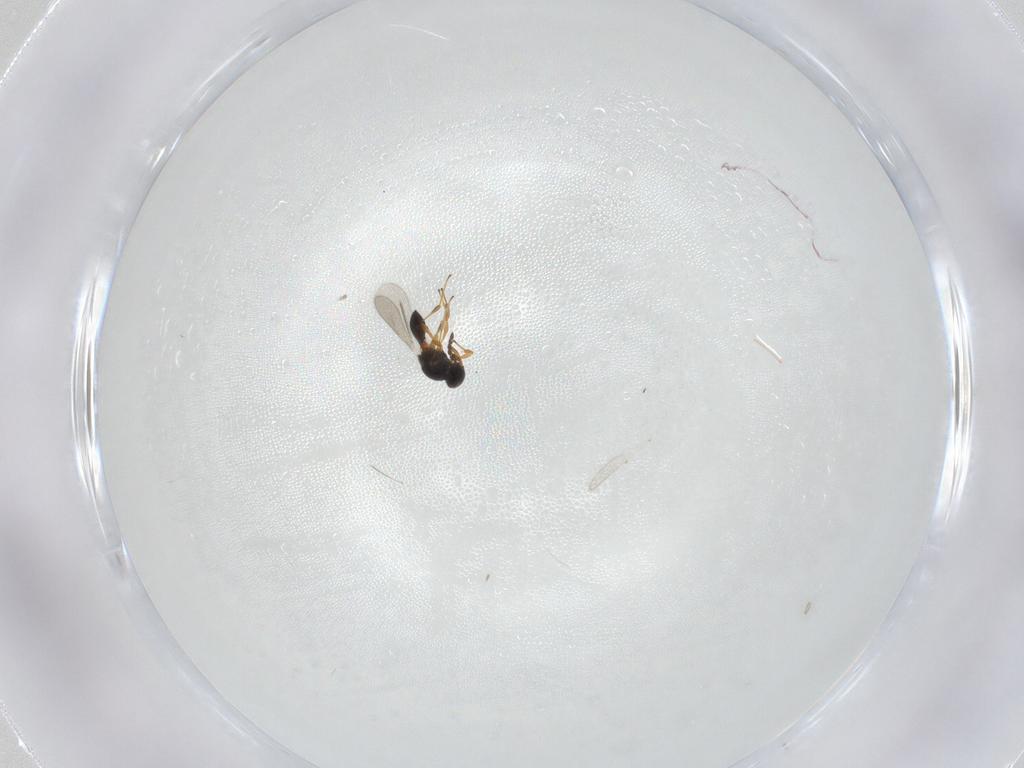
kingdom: Animalia
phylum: Arthropoda
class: Insecta
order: Hymenoptera
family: Platygastridae
